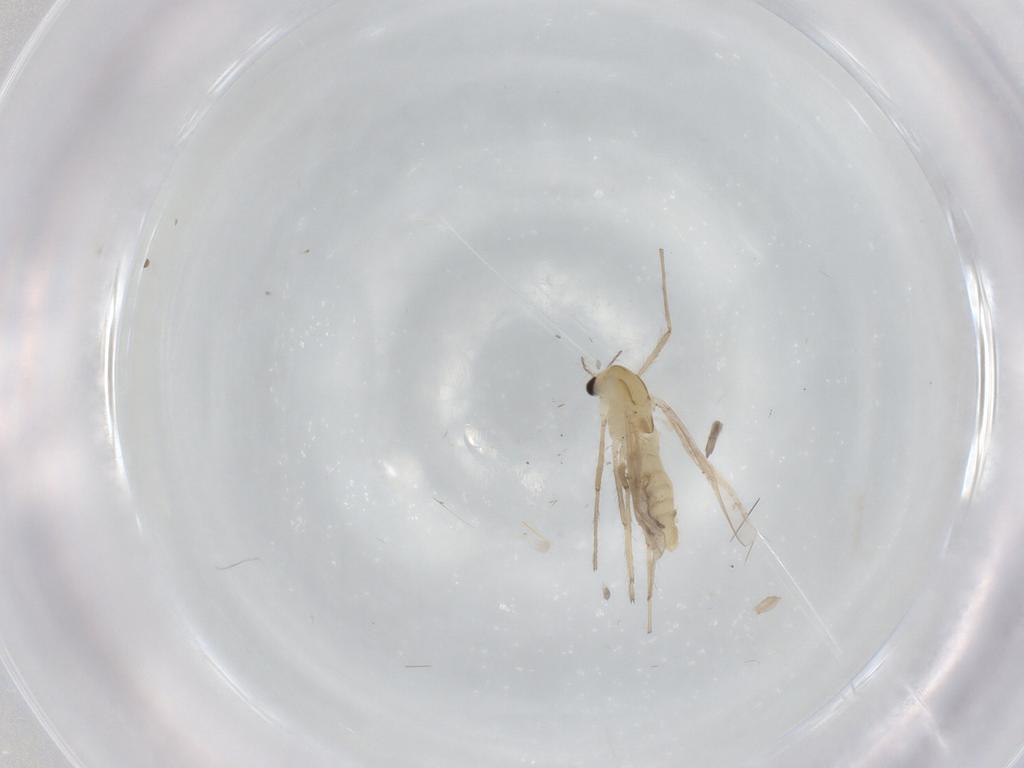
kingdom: Animalia
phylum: Arthropoda
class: Insecta
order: Diptera
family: Chironomidae
